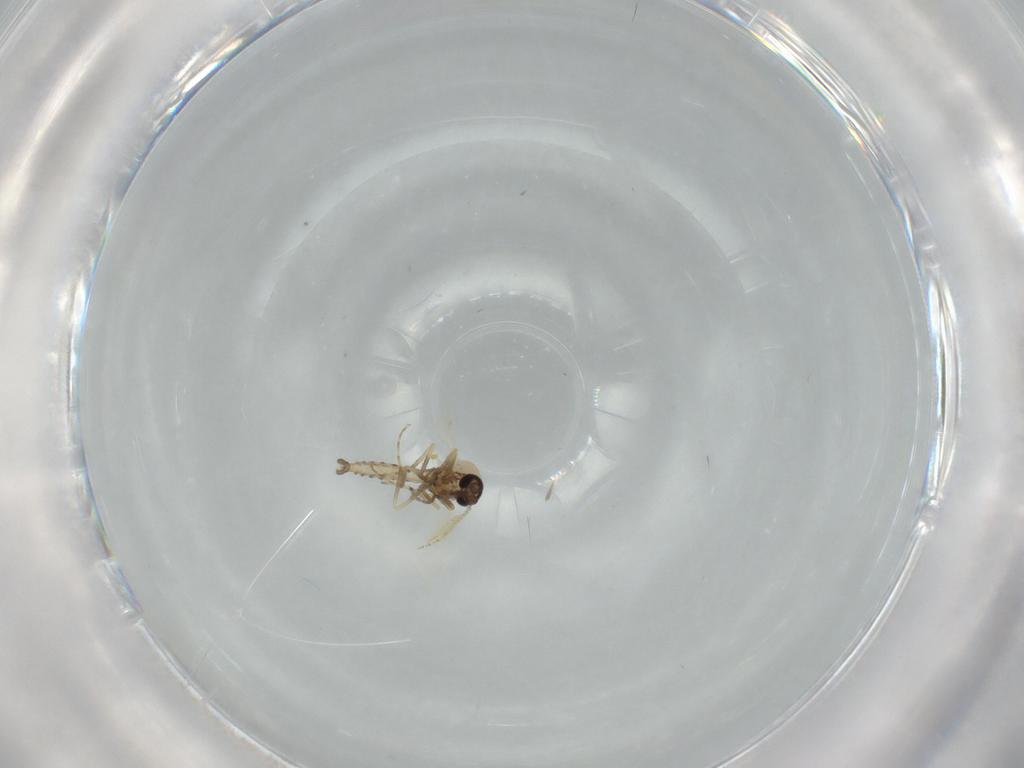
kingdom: Animalia
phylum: Arthropoda
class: Insecta
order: Diptera
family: Ceratopogonidae
